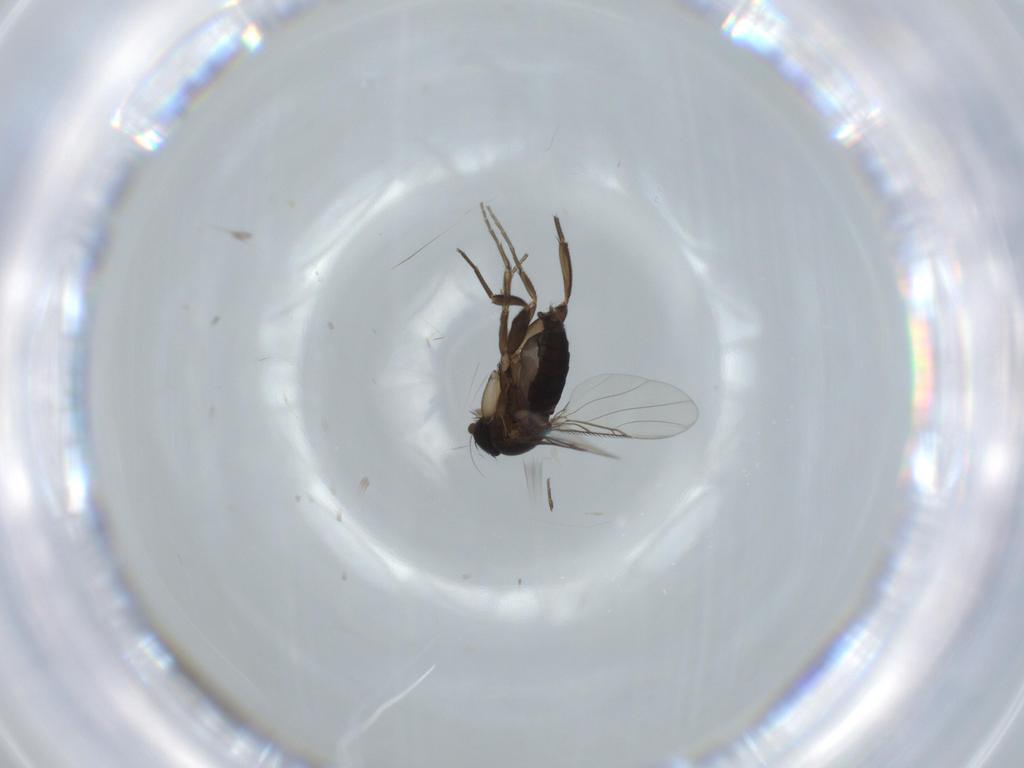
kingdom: Animalia
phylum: Arthropoda
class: Insecta
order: Diptera
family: Phoridae
